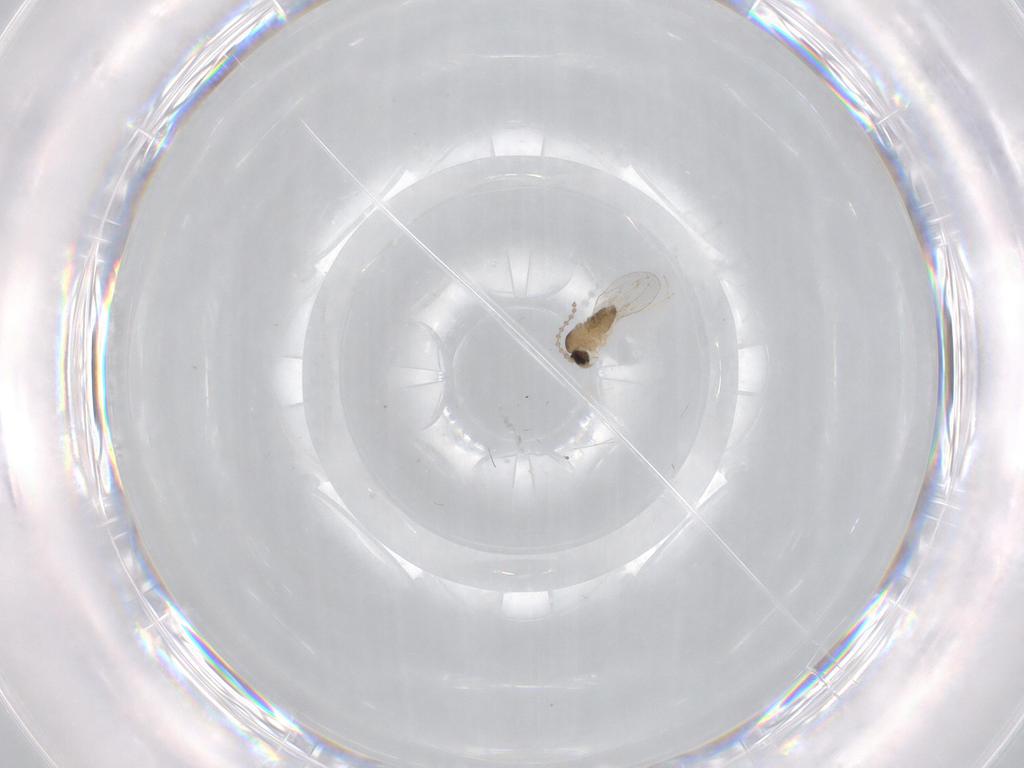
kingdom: Animalia
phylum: Arthropoda
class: Insecta
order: Diptera
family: Cecidomyiidae
